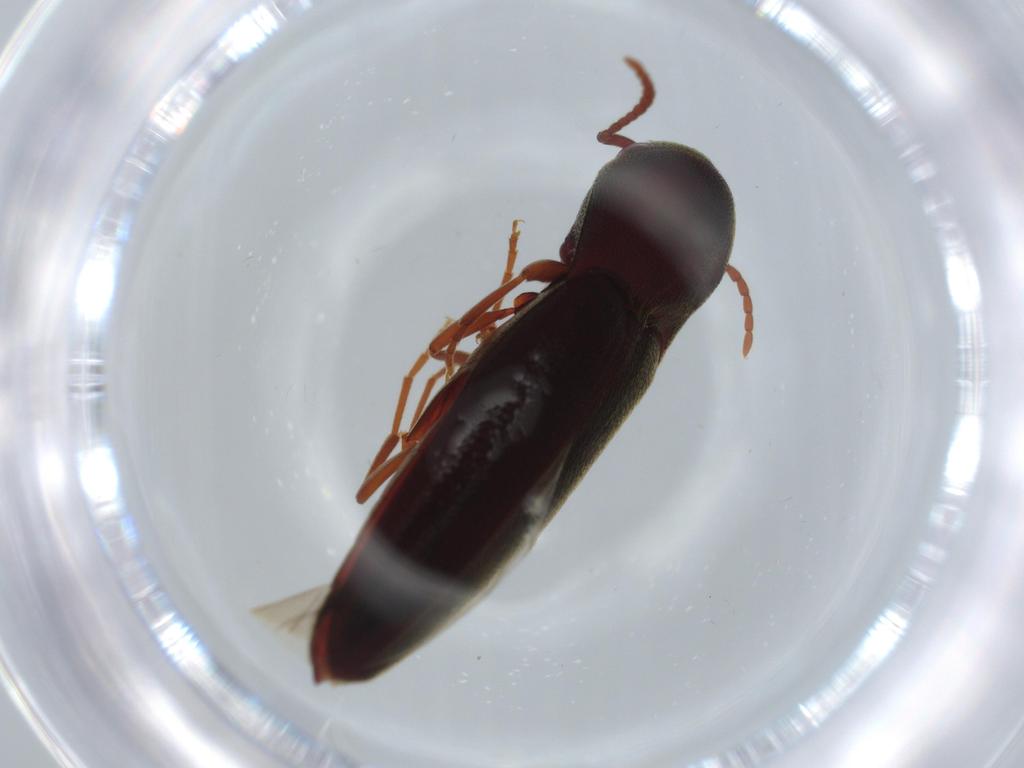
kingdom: Animalia
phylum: Arthropoda
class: Insecta
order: Coleoptera
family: Eucnemidae
